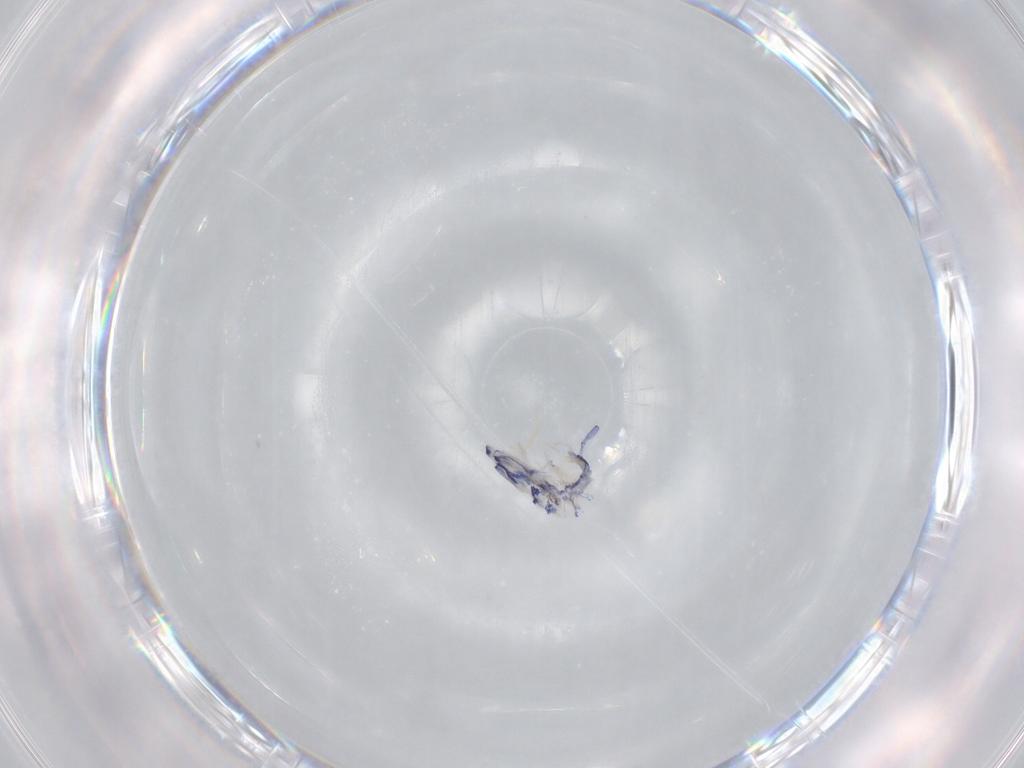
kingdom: Animalia
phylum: Arthropoda
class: Collembola
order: Entomobryomorpha
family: Entomobryidae
